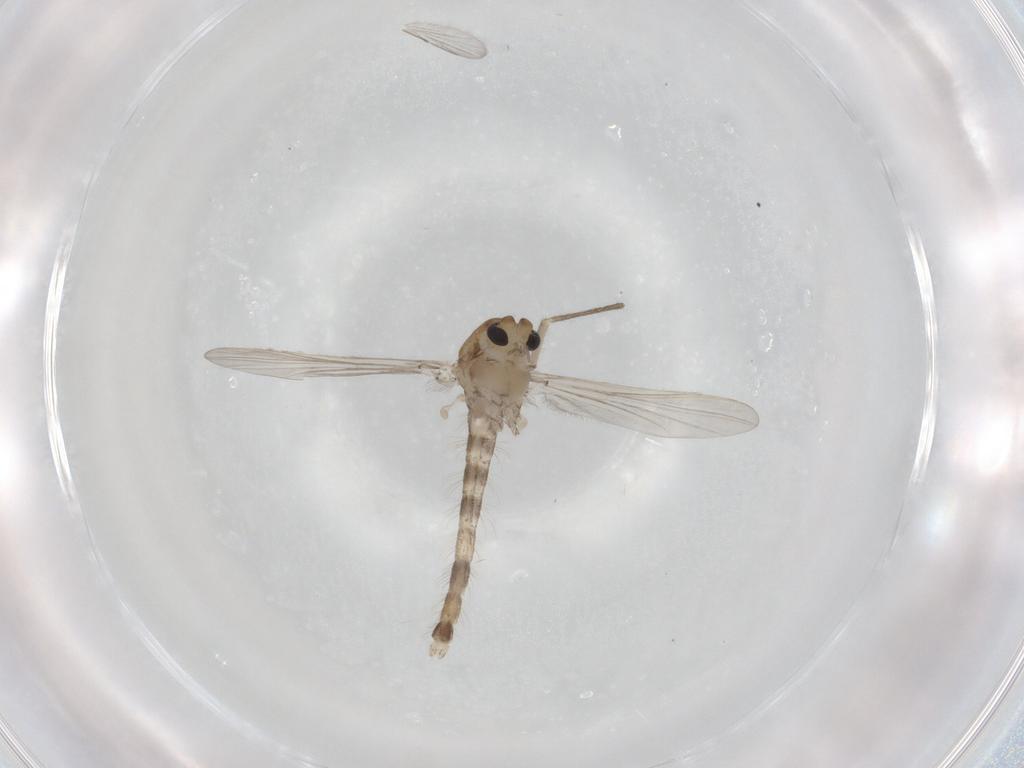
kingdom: Animalia
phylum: Arthropoda
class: Insecta
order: Diptera
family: Chironomidae
